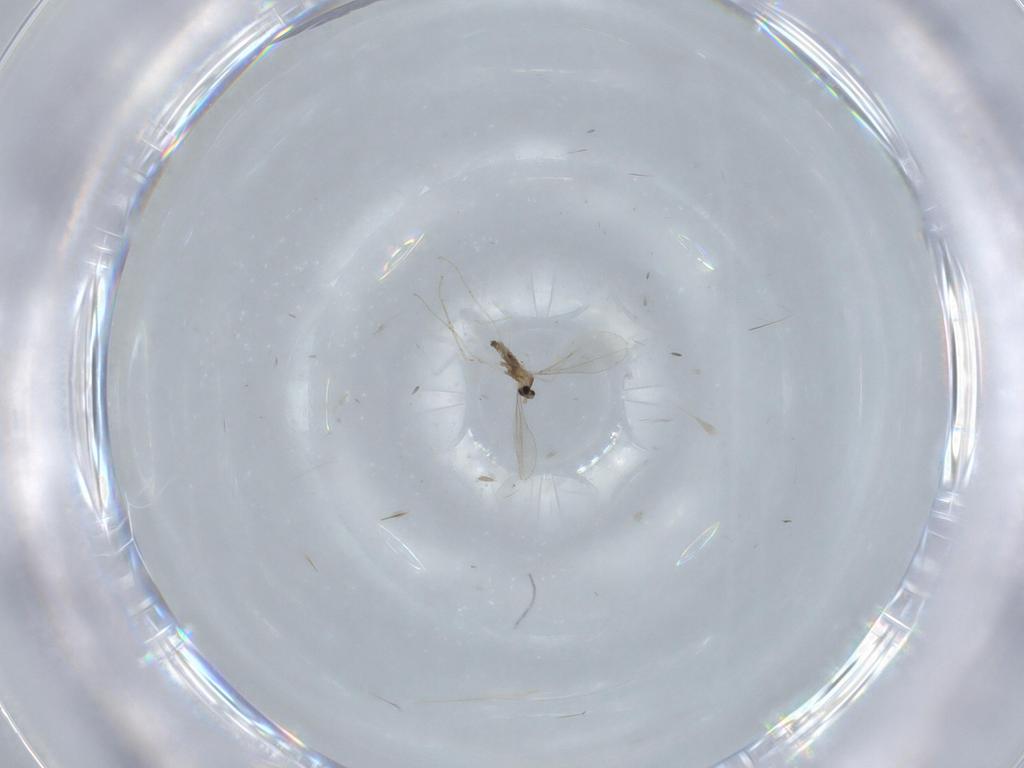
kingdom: Animalia
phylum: Arthropoda
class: Insecta
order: Diptera
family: Cecidomyiidae
